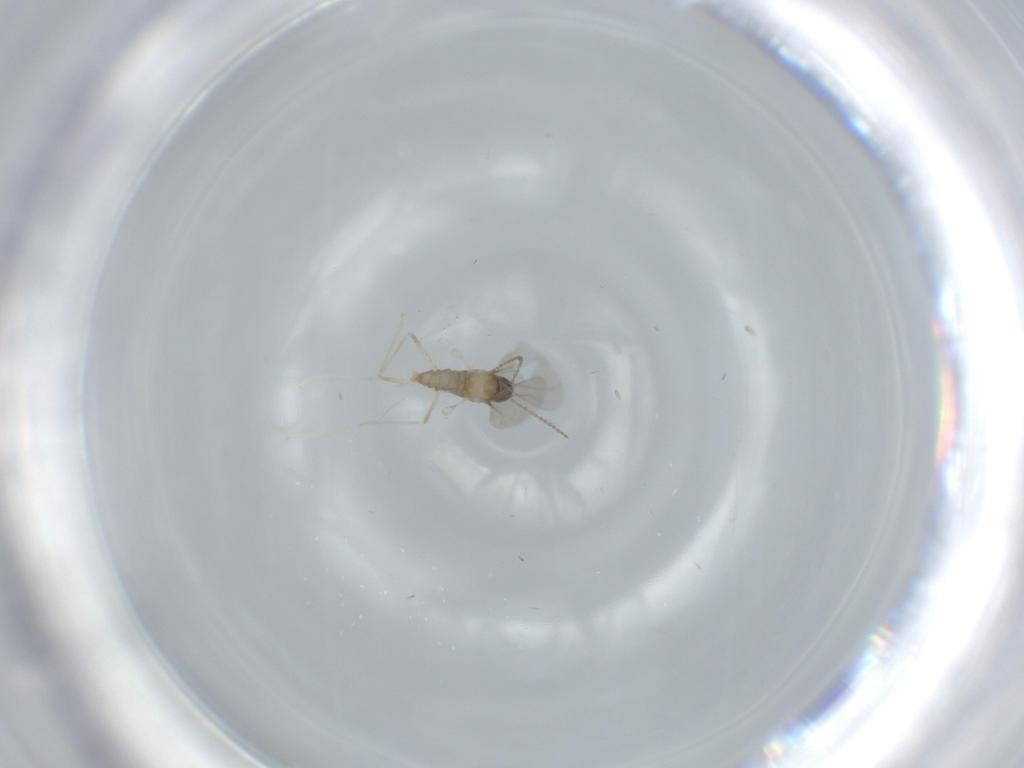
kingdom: Animalia
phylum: Arthropoda
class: Insecta
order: Diptera
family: Cecidomyiidae
